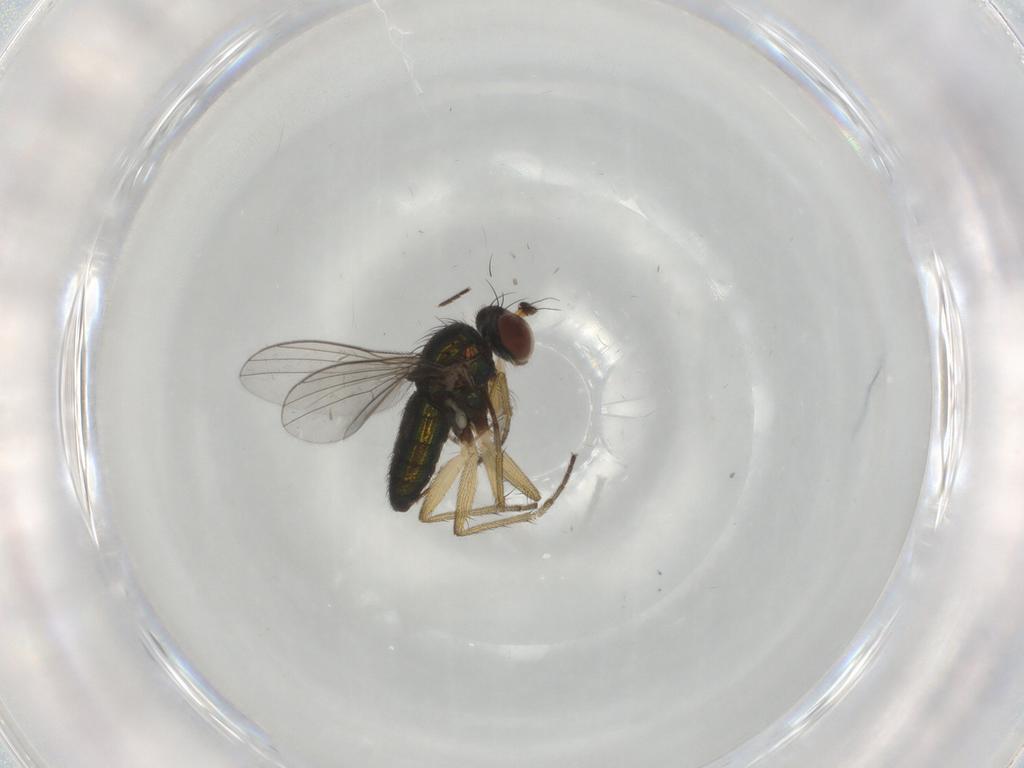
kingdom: Animalia
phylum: Arthropoda
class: Insecta
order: Diptera
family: Dolichopodidae
